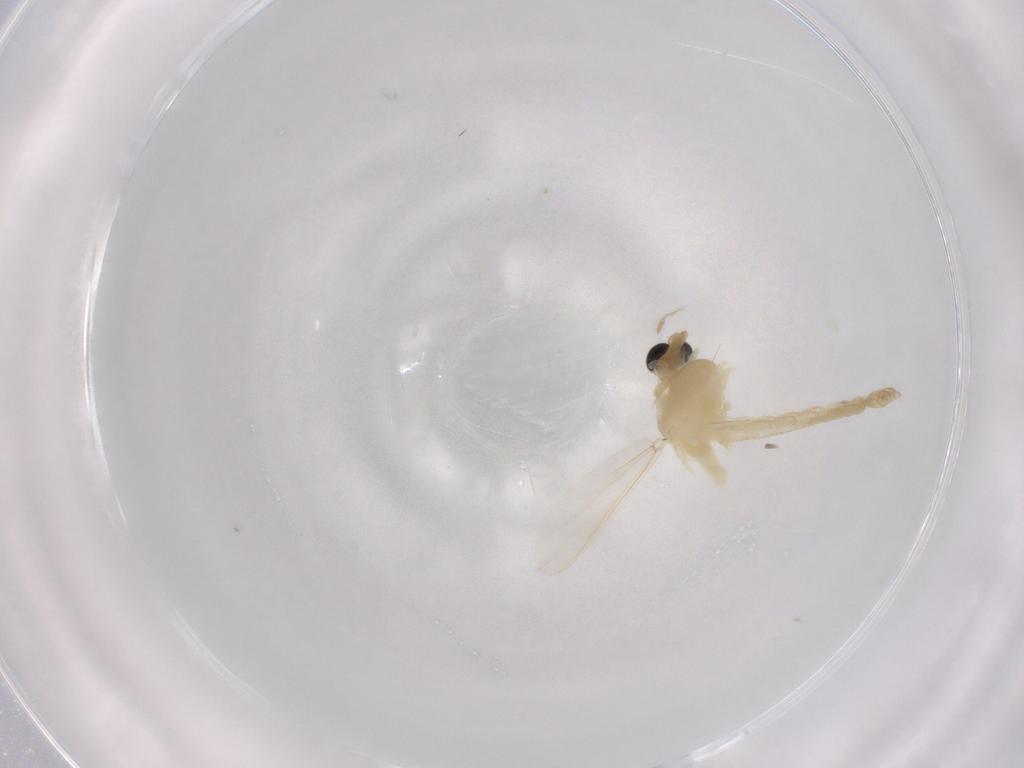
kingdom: Animalia
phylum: Arthropoda
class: Insecta
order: Diptera
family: Chironomidae
